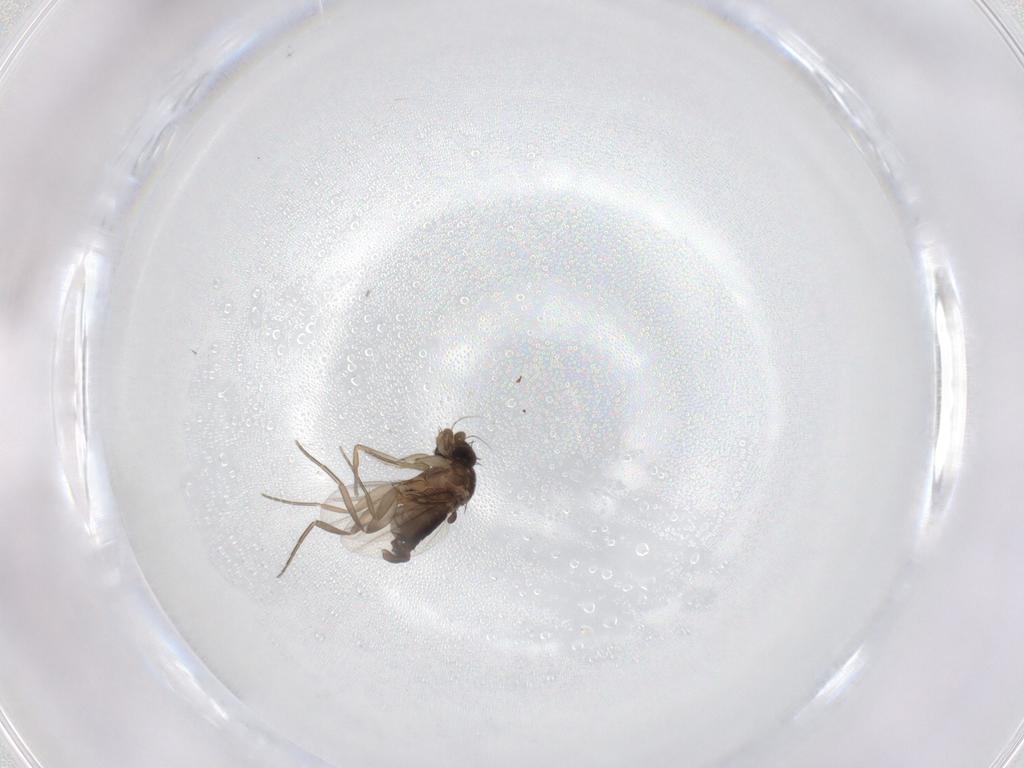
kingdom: Animalia
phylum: Arthropoda
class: Insecta
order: Diptera
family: Phoridae
